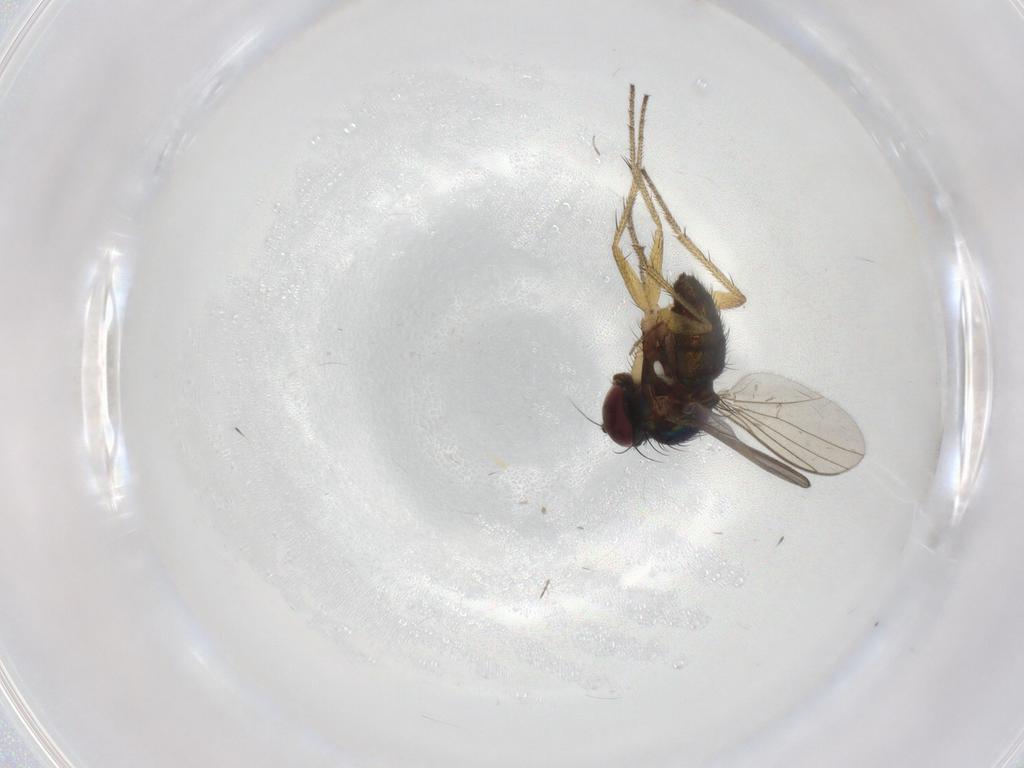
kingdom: Animalia
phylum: Arthropoda
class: Insecta
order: Diptera
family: Dolichopodidae
